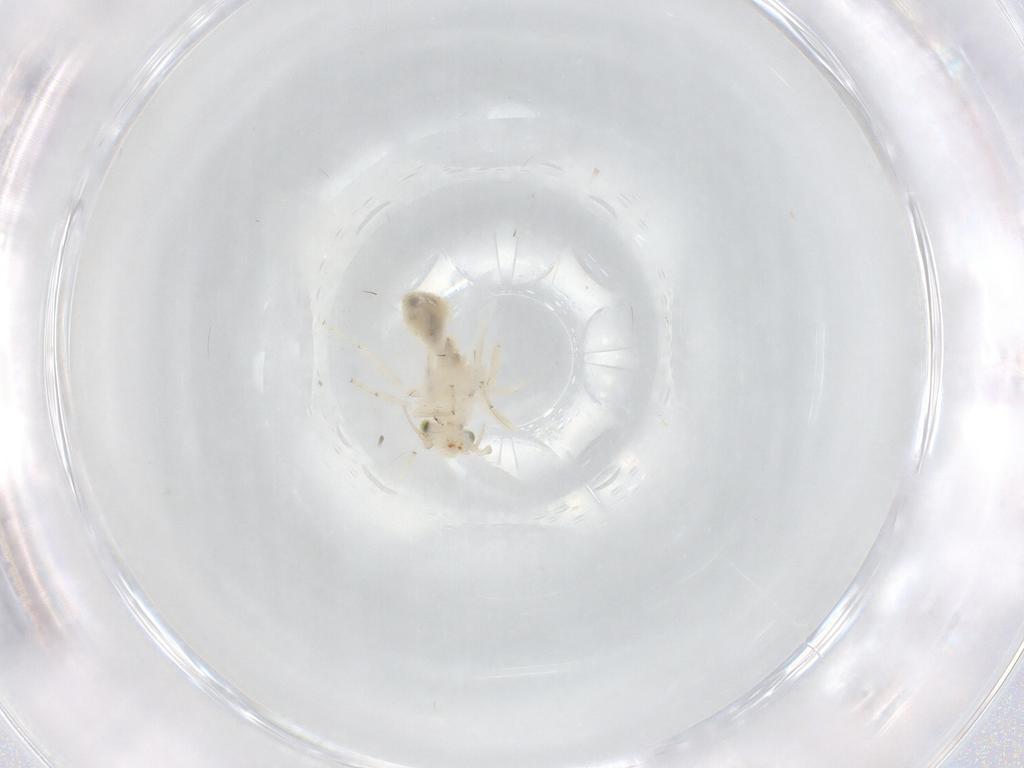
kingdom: Animalia
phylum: Arthropoda
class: Insecta
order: Psocodea
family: Lepidopsocidae
